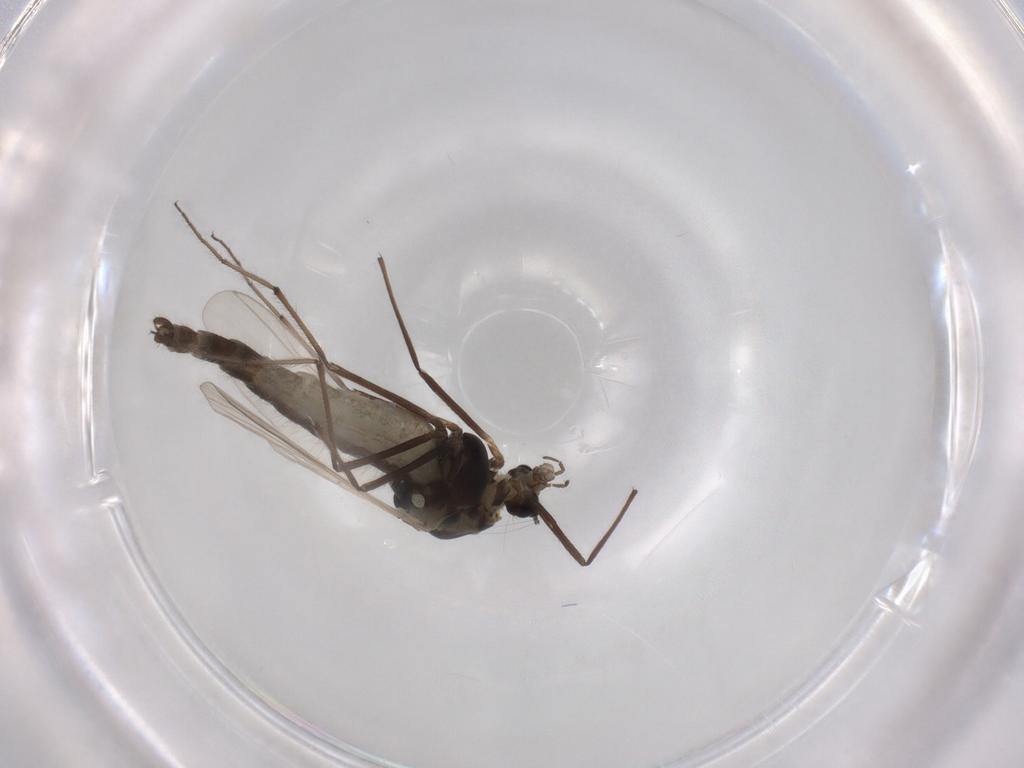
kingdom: Animalia
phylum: Arthropoda
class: Insecta
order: Diptera
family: Chironomidae
